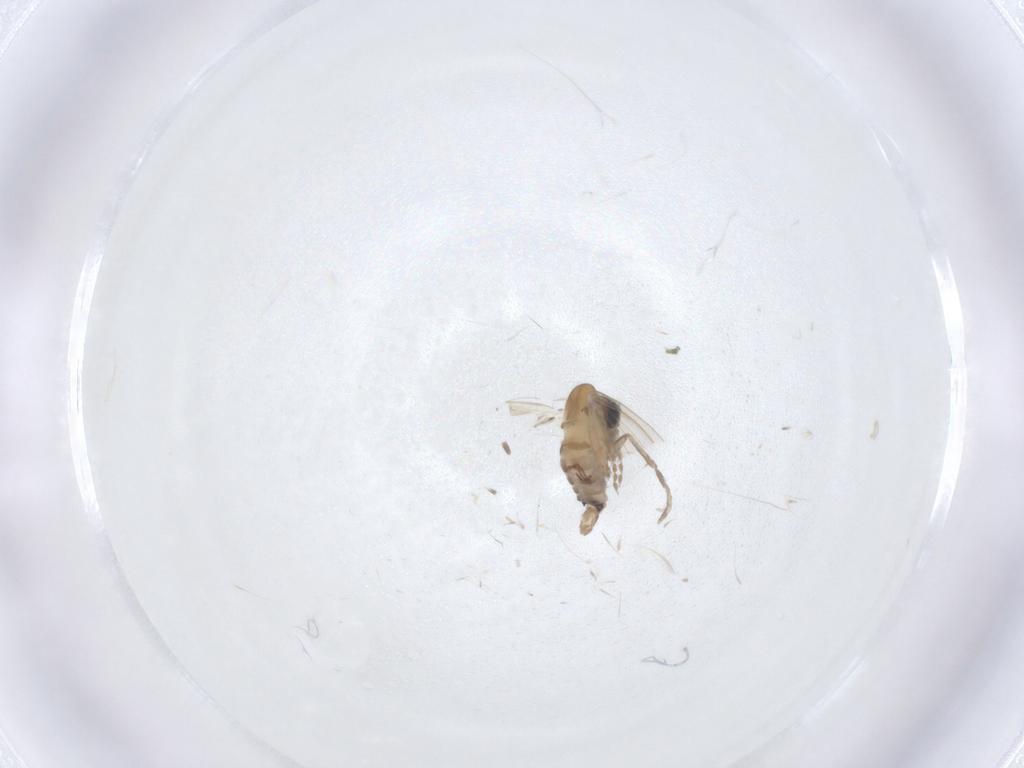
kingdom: Animalia
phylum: Arthropoda
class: Insecta
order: Diptera
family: Psychodidae
